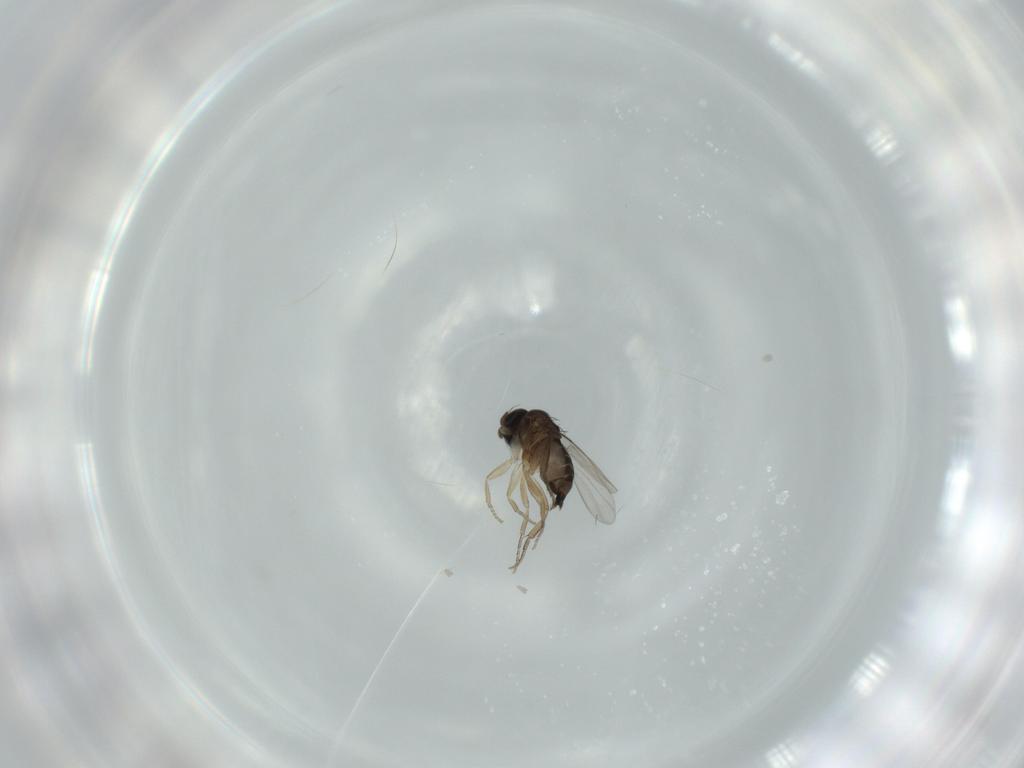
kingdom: Animalia
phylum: Arthropoda
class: Insecta
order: Diptera
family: Phoridae
